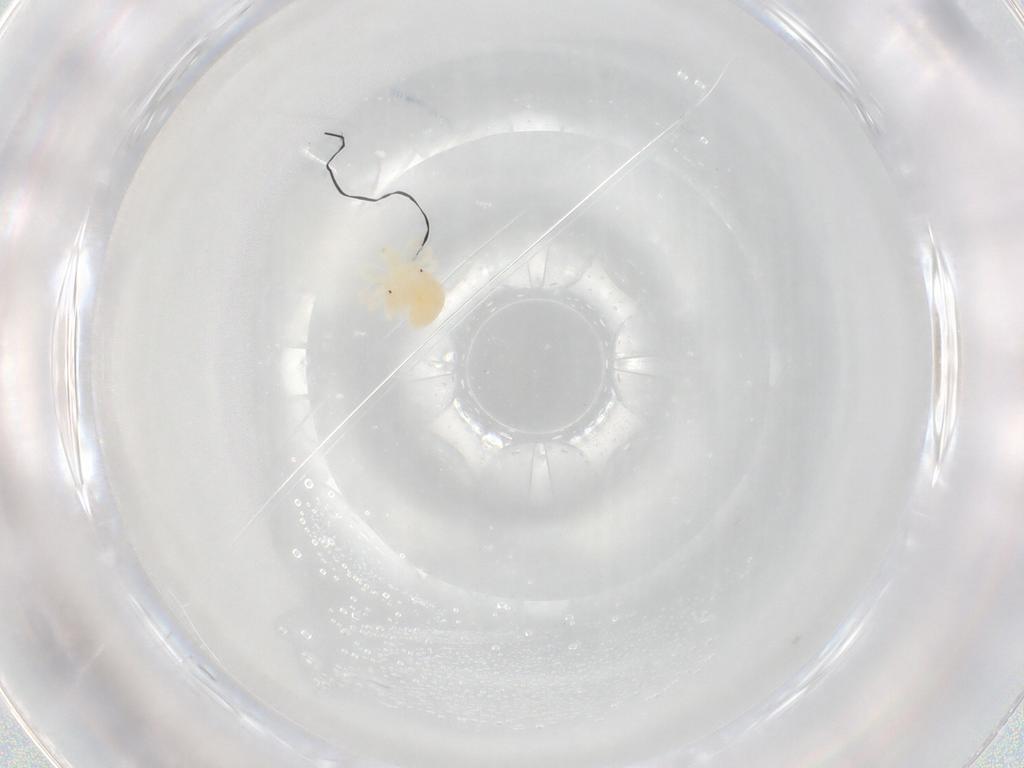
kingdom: Animalia
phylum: Arthropoda
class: Arachnida
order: Trombidiformes
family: Anystidae
